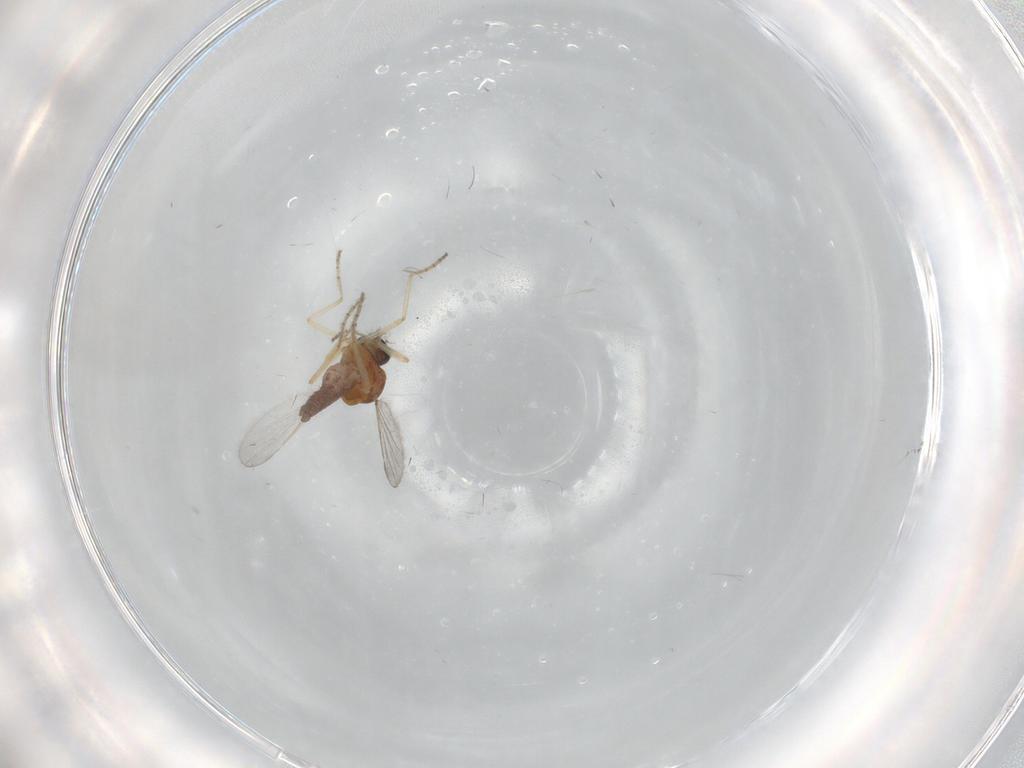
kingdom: Animalia
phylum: Arthropoda
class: Insecta
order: Diptera
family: Ceratopogonidae
